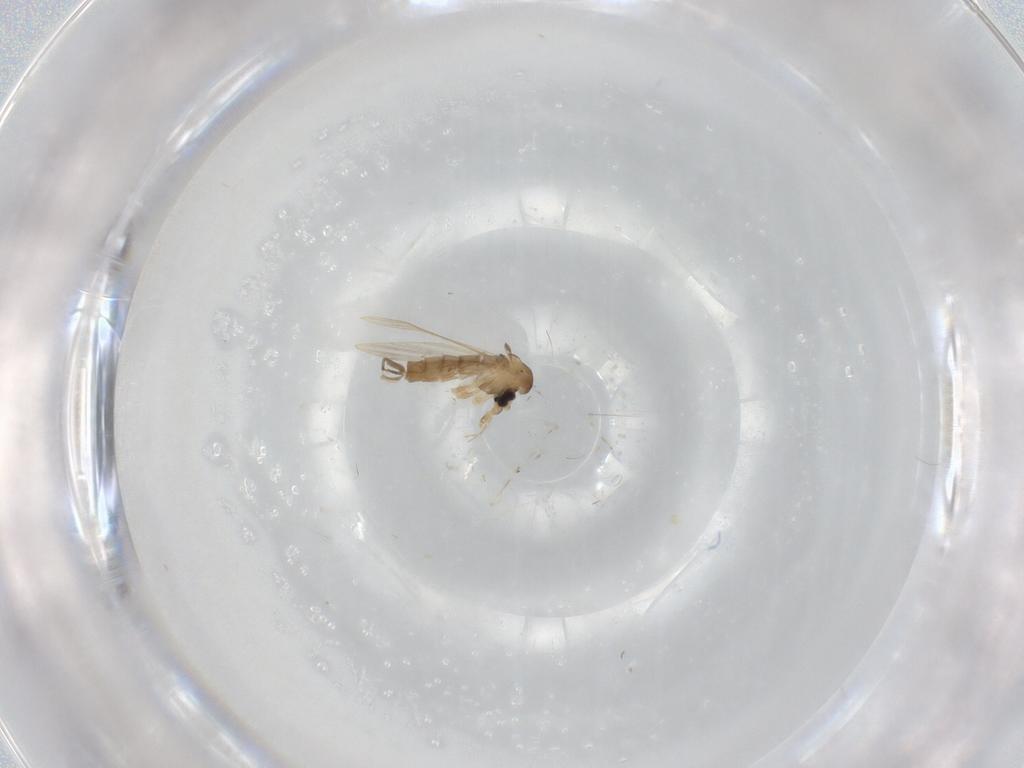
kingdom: Animalia
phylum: Arthropoda
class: Insecta
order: Diptera
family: Psychodidae
